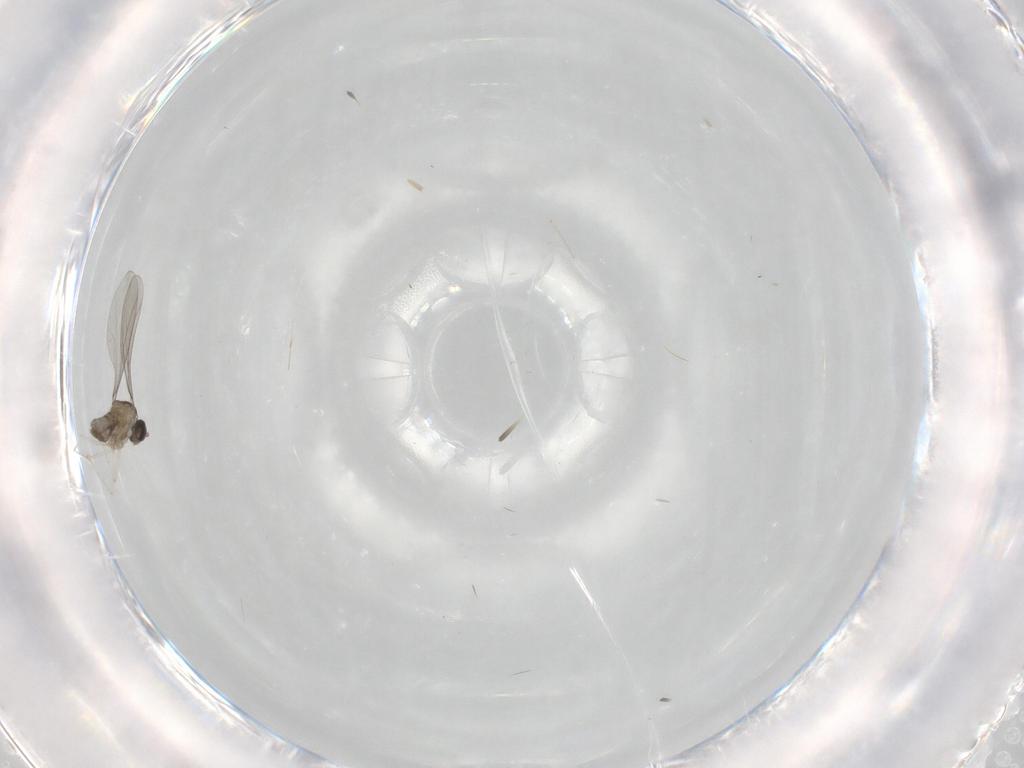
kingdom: Animalia
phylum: Arthropoda
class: Insecta
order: Diptera
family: Cecidomyiidae
